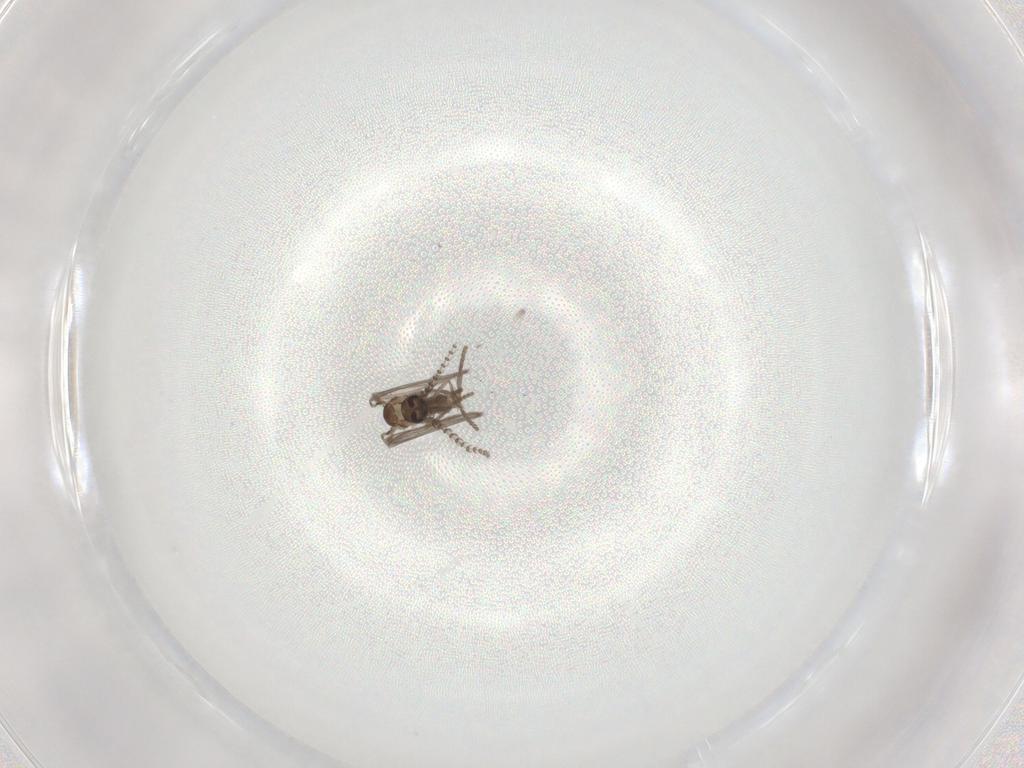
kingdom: Animalia
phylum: Arthropoda
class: Insecta
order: Diptera
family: Psychodidae
